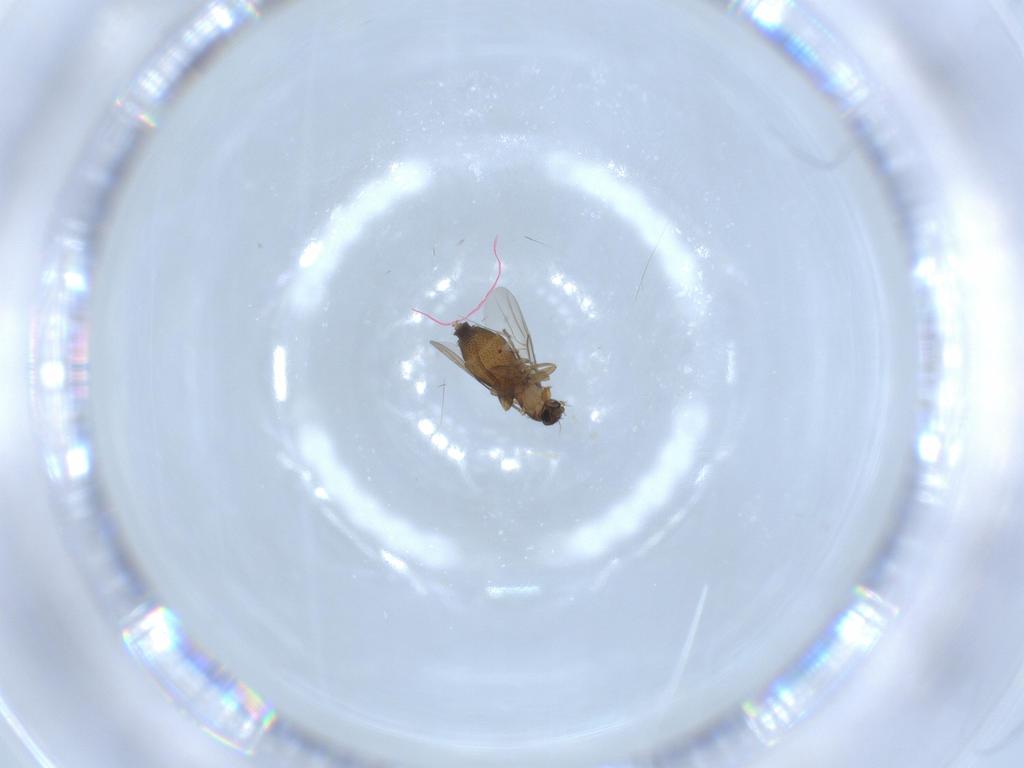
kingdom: Animalia
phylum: Arthropoda
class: Insecta
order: Diptera
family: Phoridae
